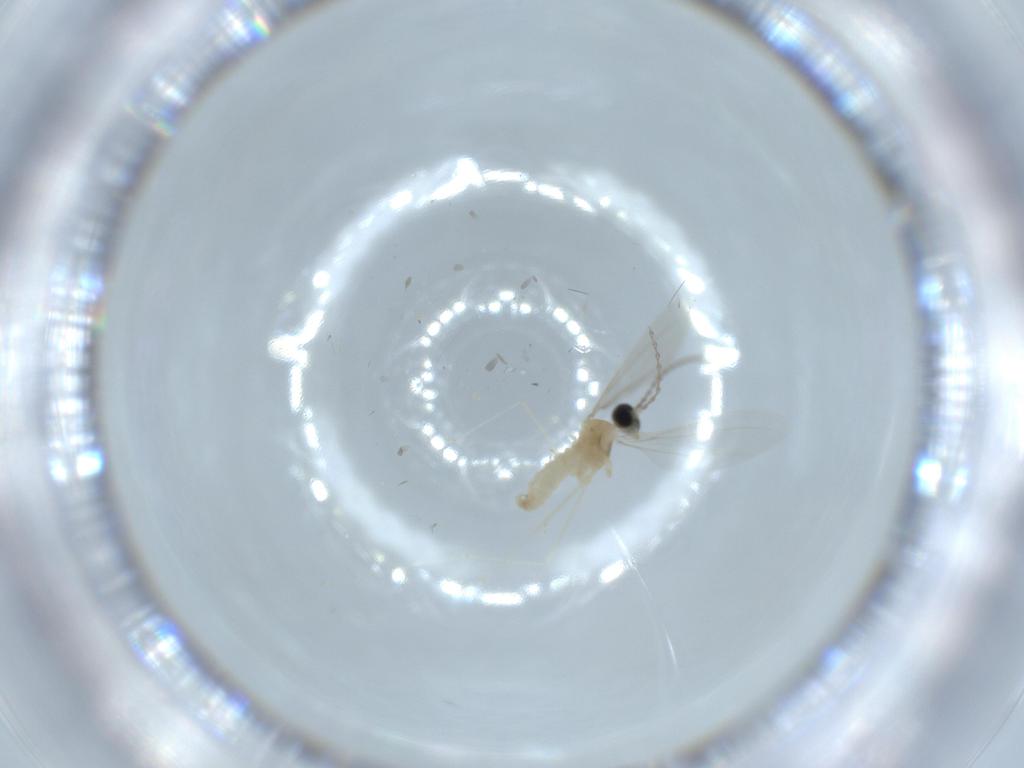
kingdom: Animalia
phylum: Arthropoda
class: Insecta
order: Diptera
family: Cecidomyiidae
